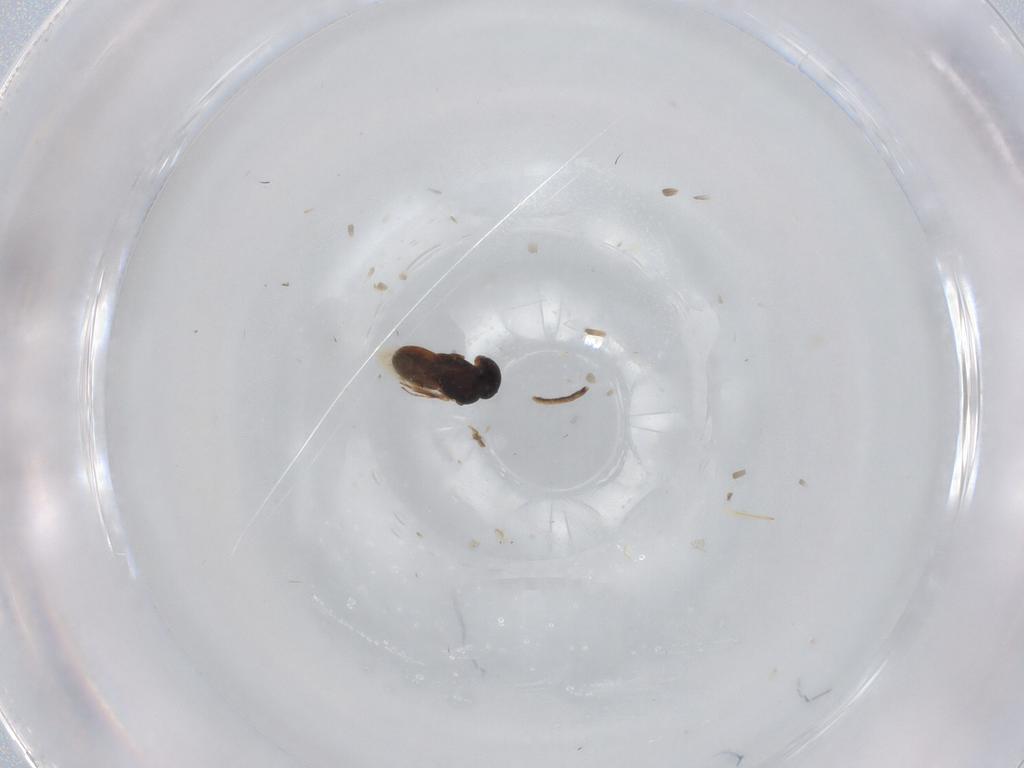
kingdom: Animalia
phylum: Arthropoda
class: Insecta
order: Hymenoptera
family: Scelionidae
